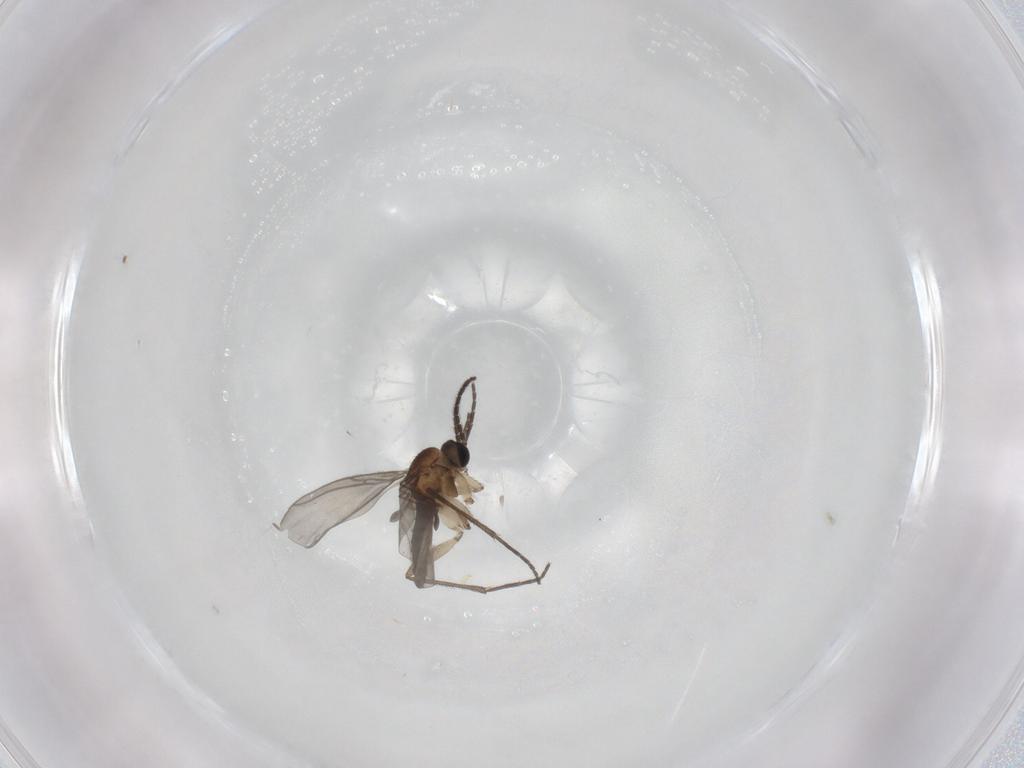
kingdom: Animalia
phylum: Arthropoda
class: Insecta
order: Diptera
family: Sciaridae
